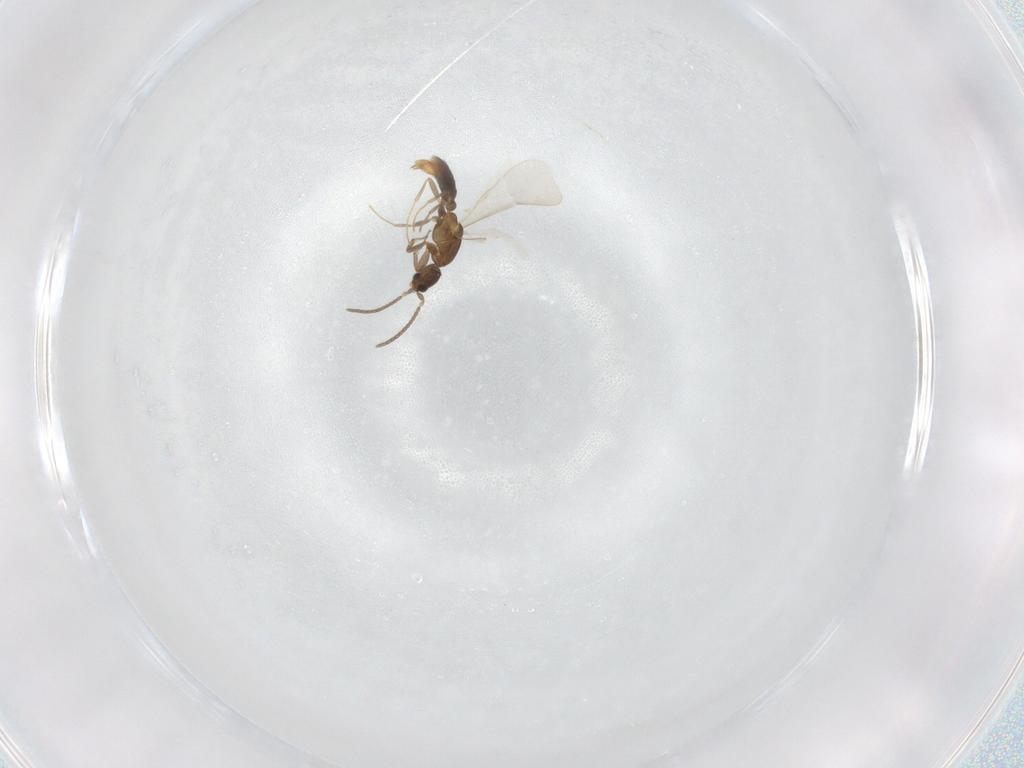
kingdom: Animalia
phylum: Arthropoda
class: Insecta
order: Hymenoptera
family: Formicidae
